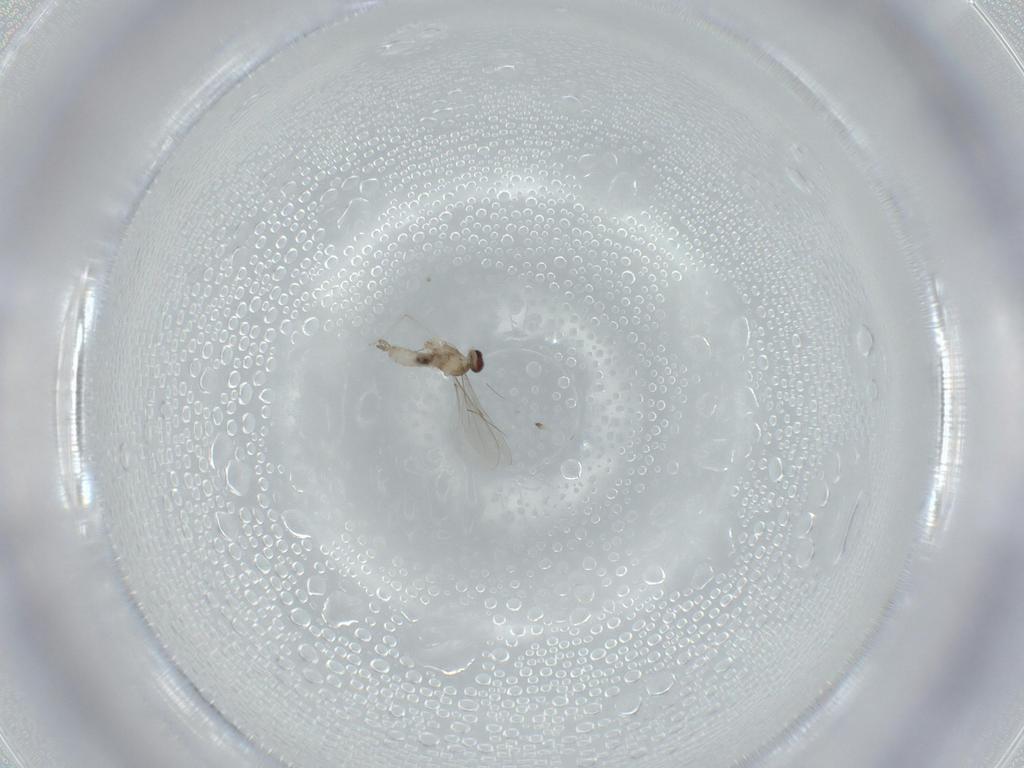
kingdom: Animalia
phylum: Arthropoda
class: Insecta
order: Diptera
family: Cecidomyiidae
